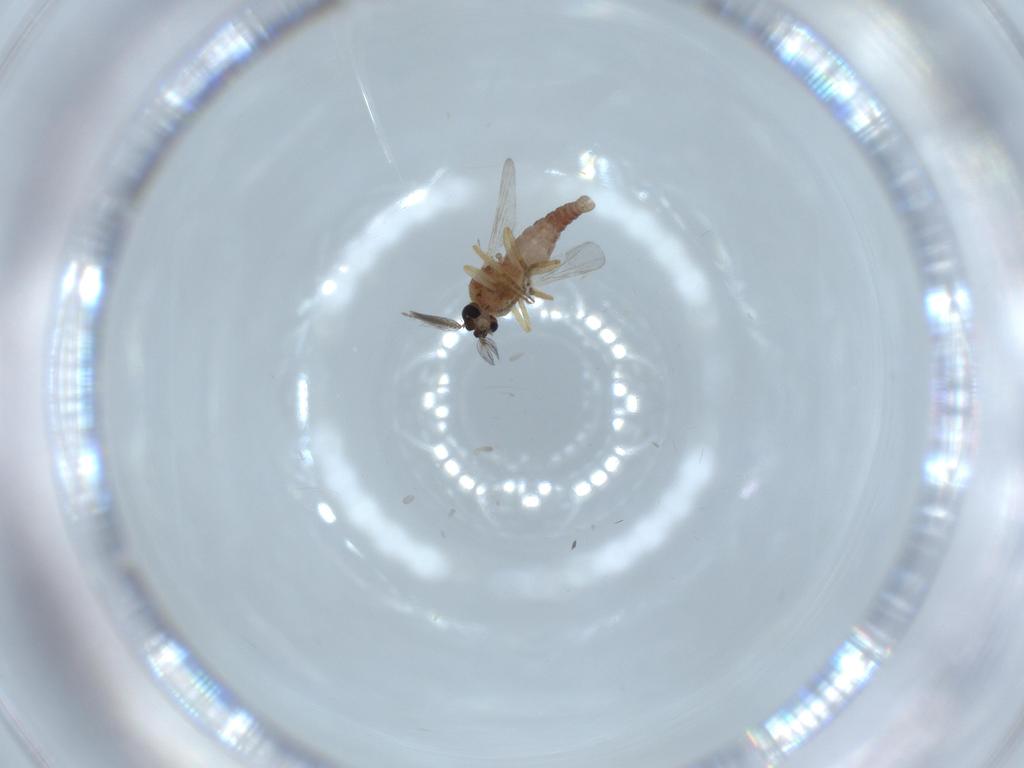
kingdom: Animalia
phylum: Arthropoda
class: Insecta
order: Diptera
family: Ceratopogonidae
